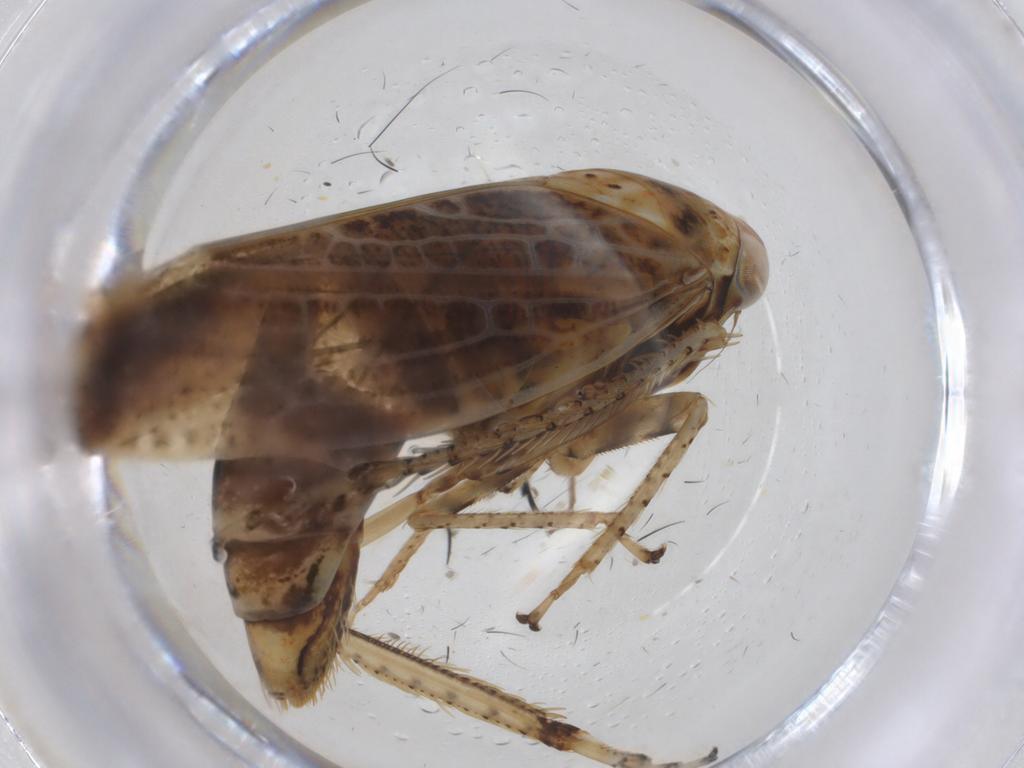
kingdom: Animalia
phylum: Arthropoda
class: Insecta
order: Hemiptera
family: Cicadellidae
